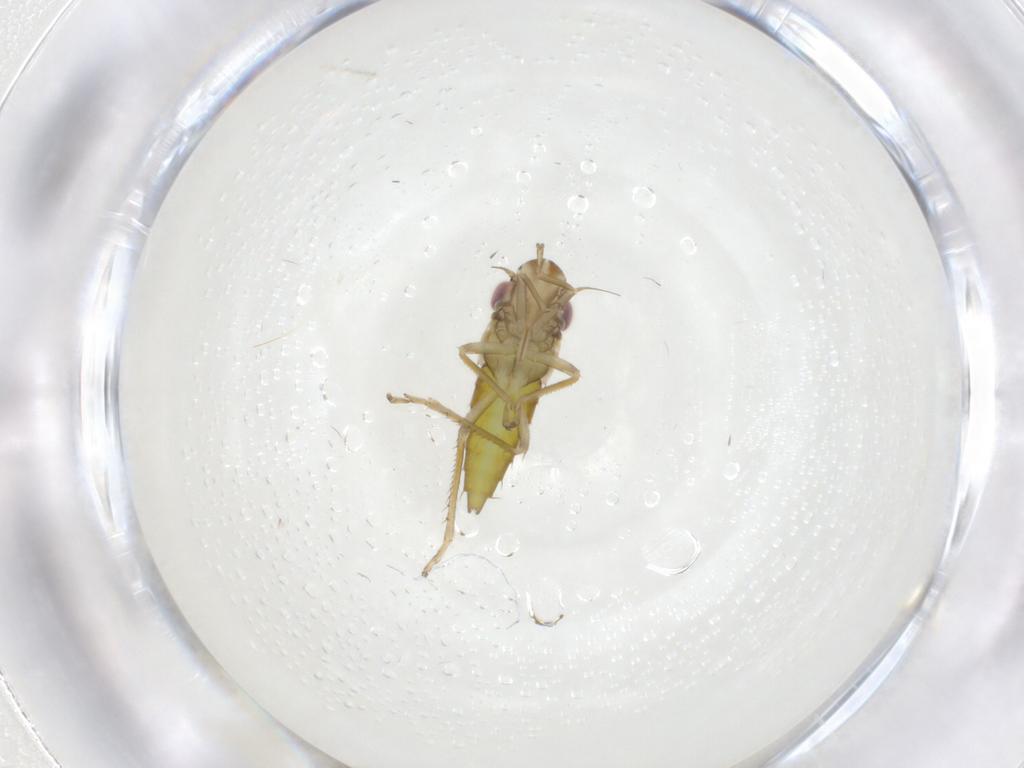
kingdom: Animalia
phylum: Arthropoda
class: Insecta
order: Hemiptera
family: Cicadellidae
